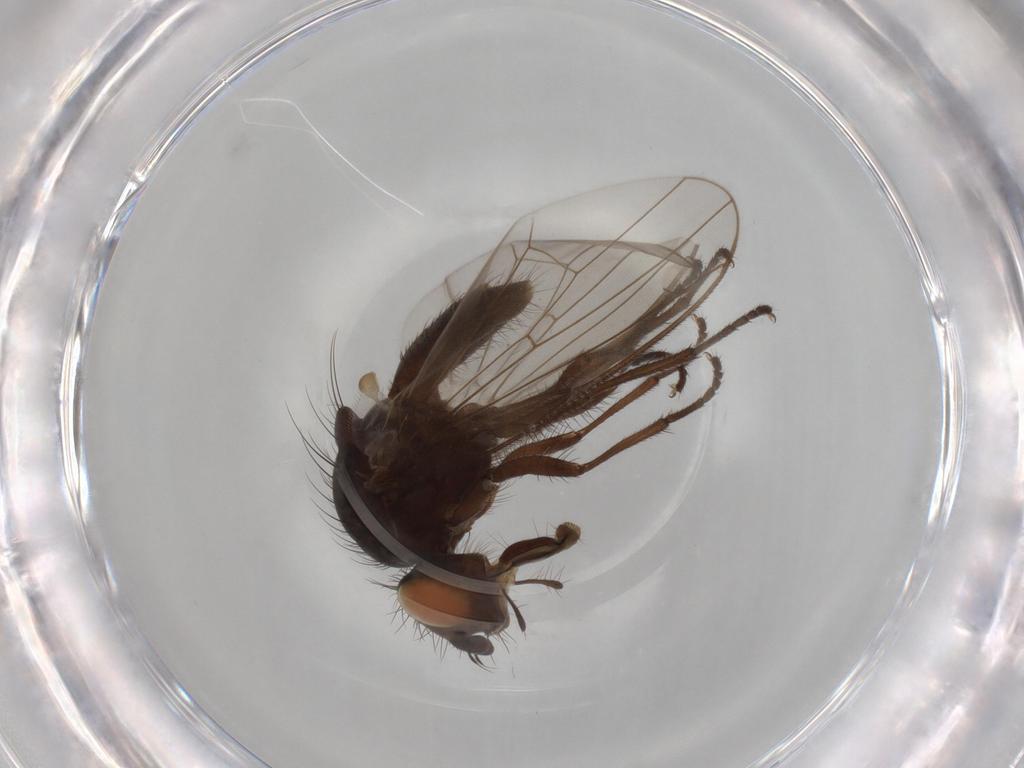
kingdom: Animalia
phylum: Arthropoda
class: Insecta
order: Diptera
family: Anthomyiidae
